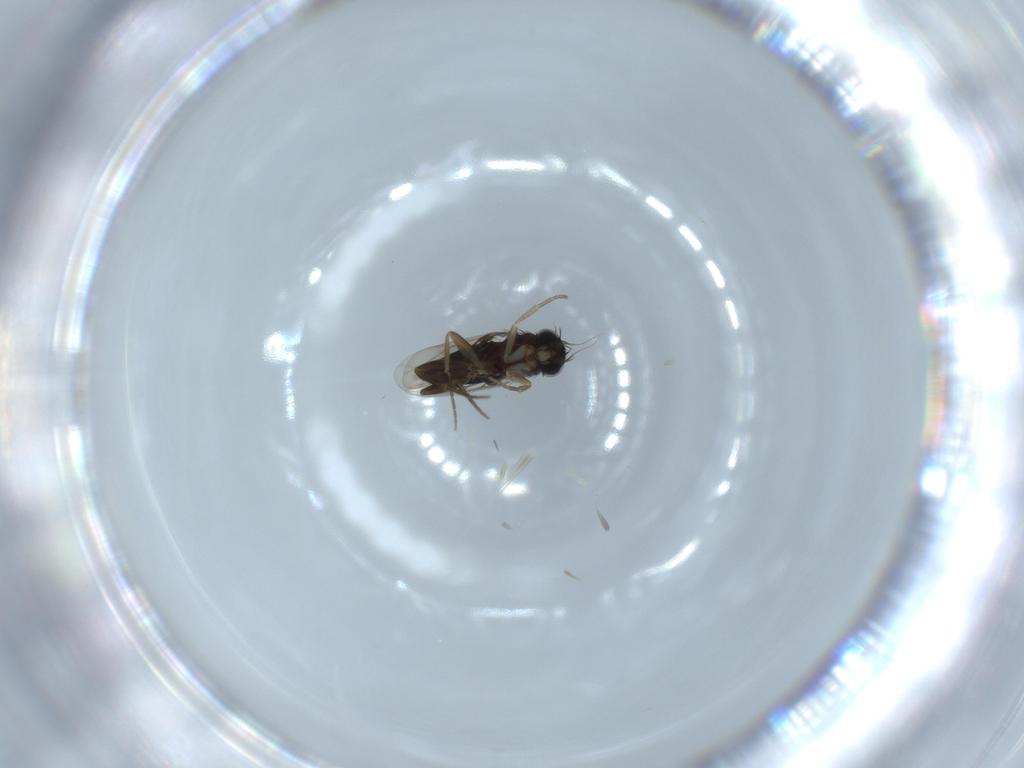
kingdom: Animalia
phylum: Arthropoda
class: Insecta
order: Diptera
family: Phoridae
